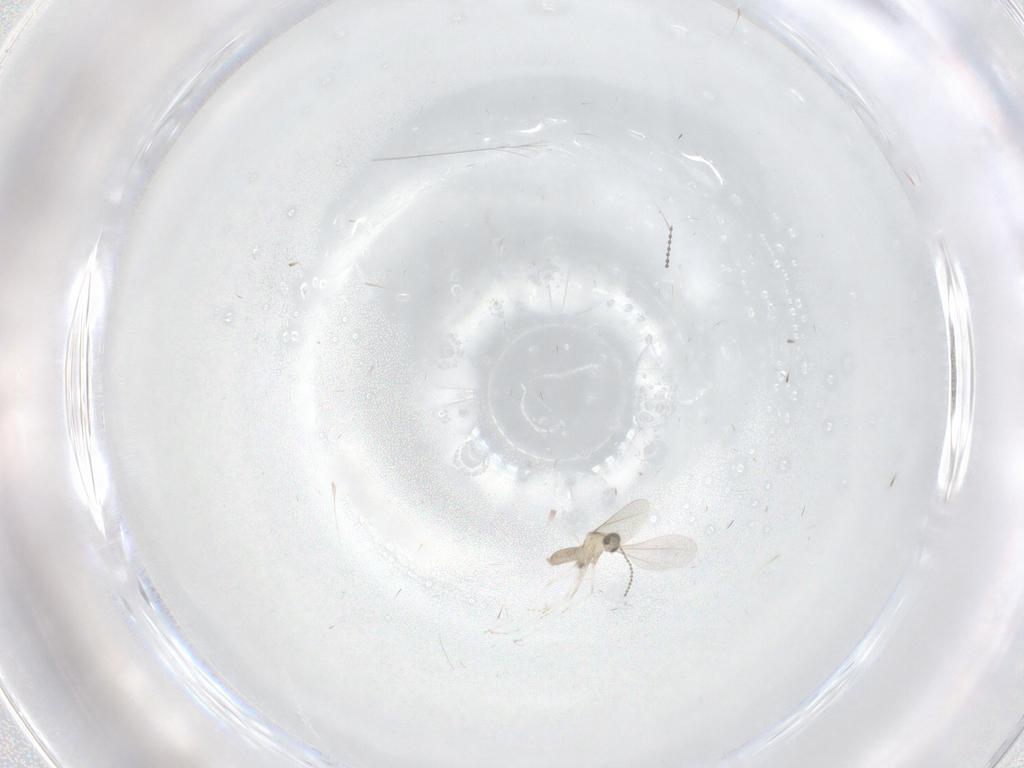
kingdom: Animalia
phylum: Arthropoda
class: Insecta
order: Diptera
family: Cecidomyiidae
